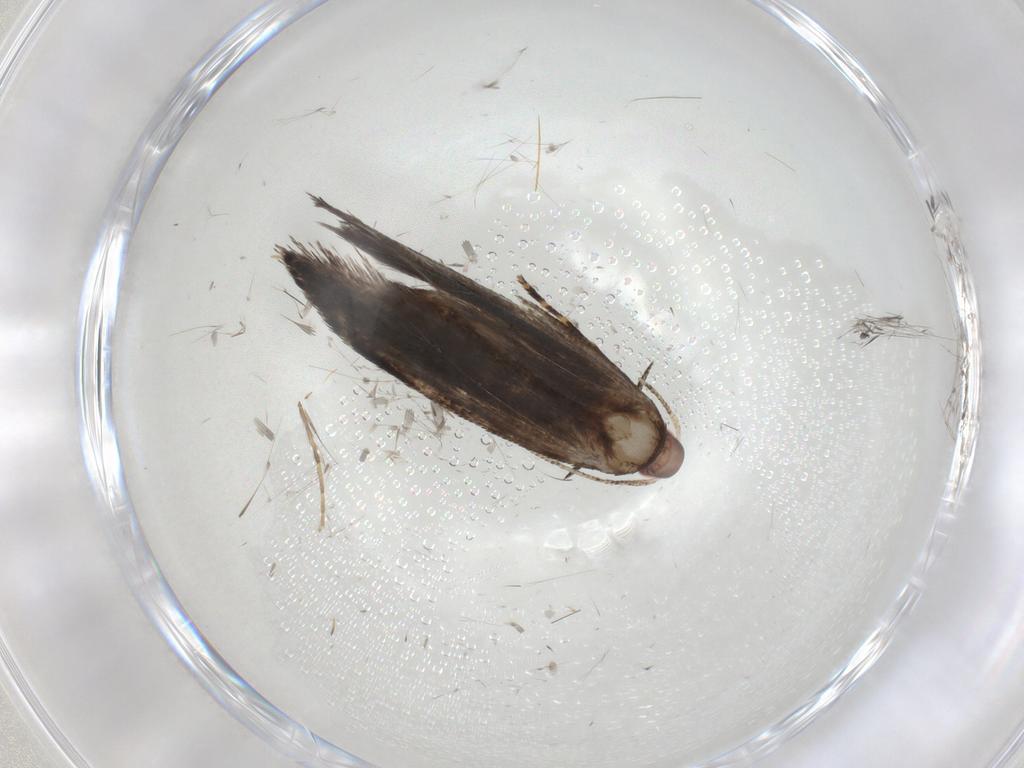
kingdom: Animalia
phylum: Arthropoda
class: Insecta
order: Lepidoptera
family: Gelechiidae
